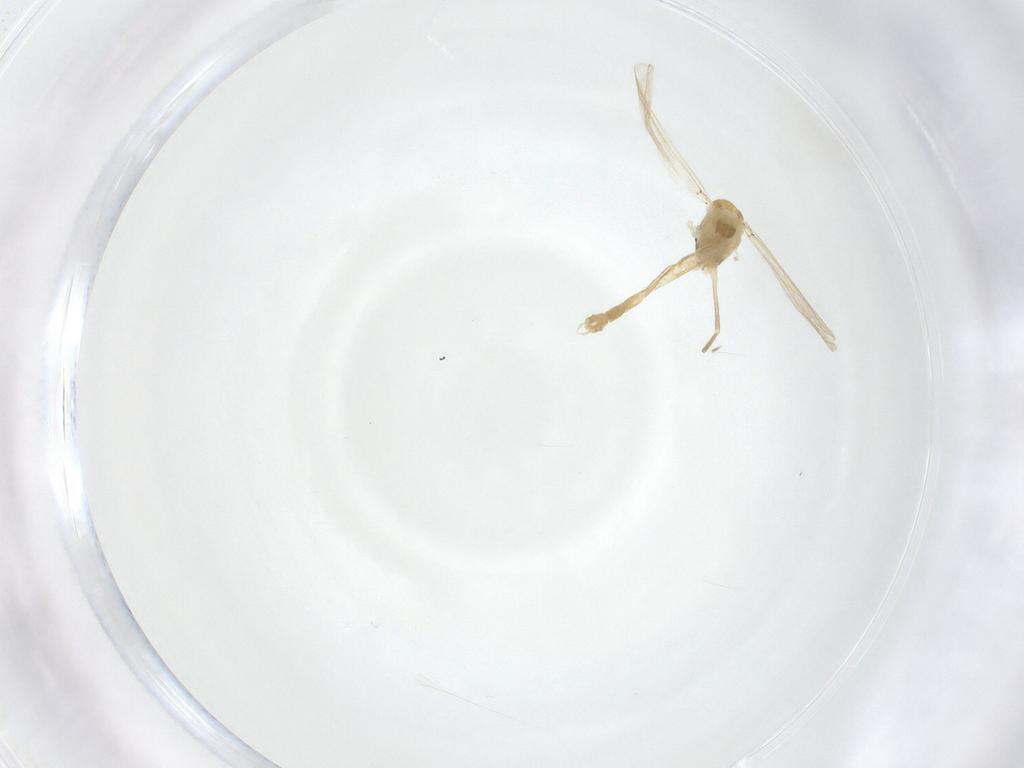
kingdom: Animalia
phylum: Arthropoda
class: Insecta
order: Diptera
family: Chironomidae
